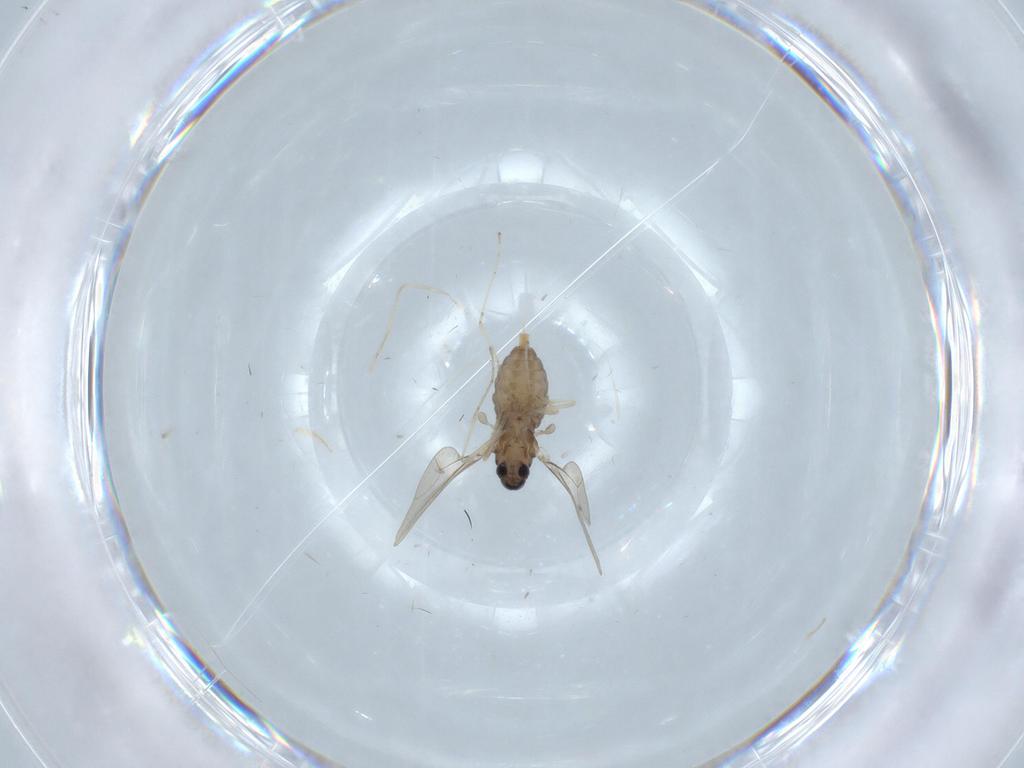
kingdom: Animalia
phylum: Arthropoda
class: Insecta
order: Diptera
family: Cecidomyiidae
